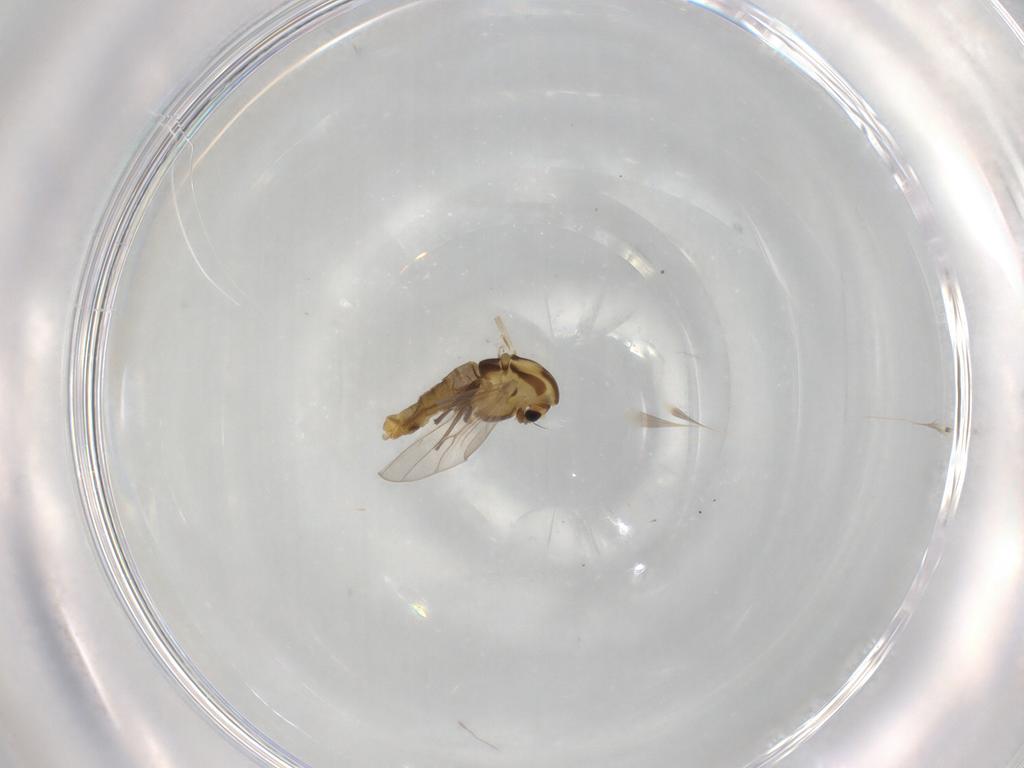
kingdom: Animalia
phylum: Arthropoda
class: Insecta
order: Diptera
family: Chironomidae
